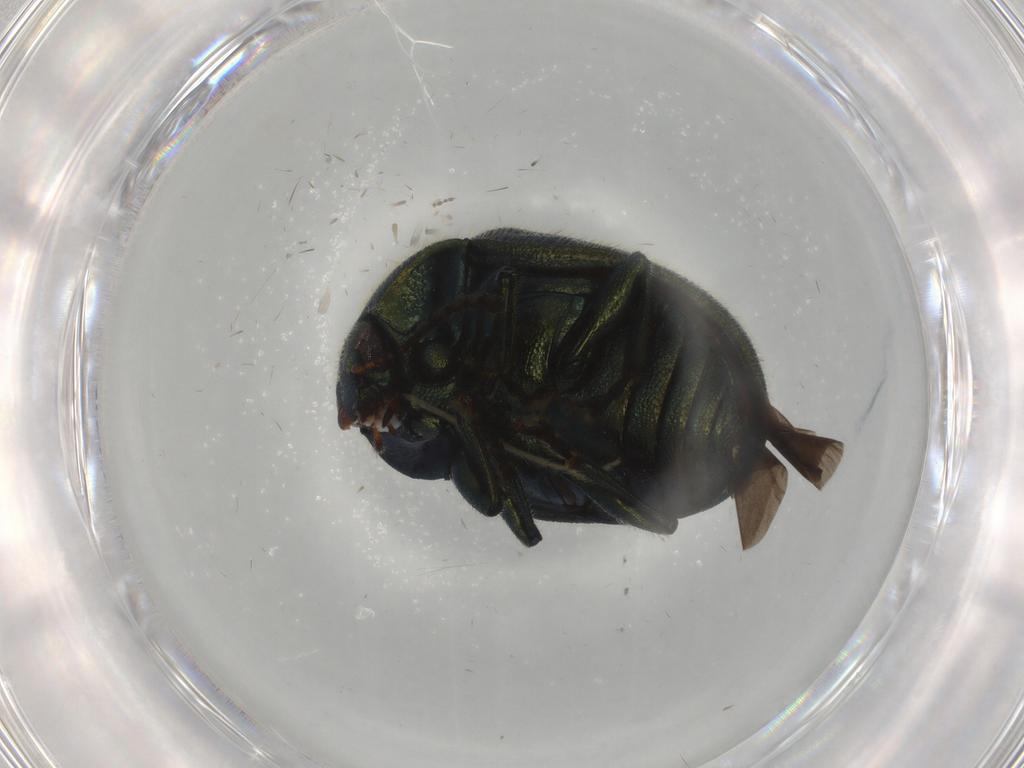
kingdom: Animalia
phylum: Arthropoda
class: Insecta
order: Coleoptera
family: Chrysomelidae
